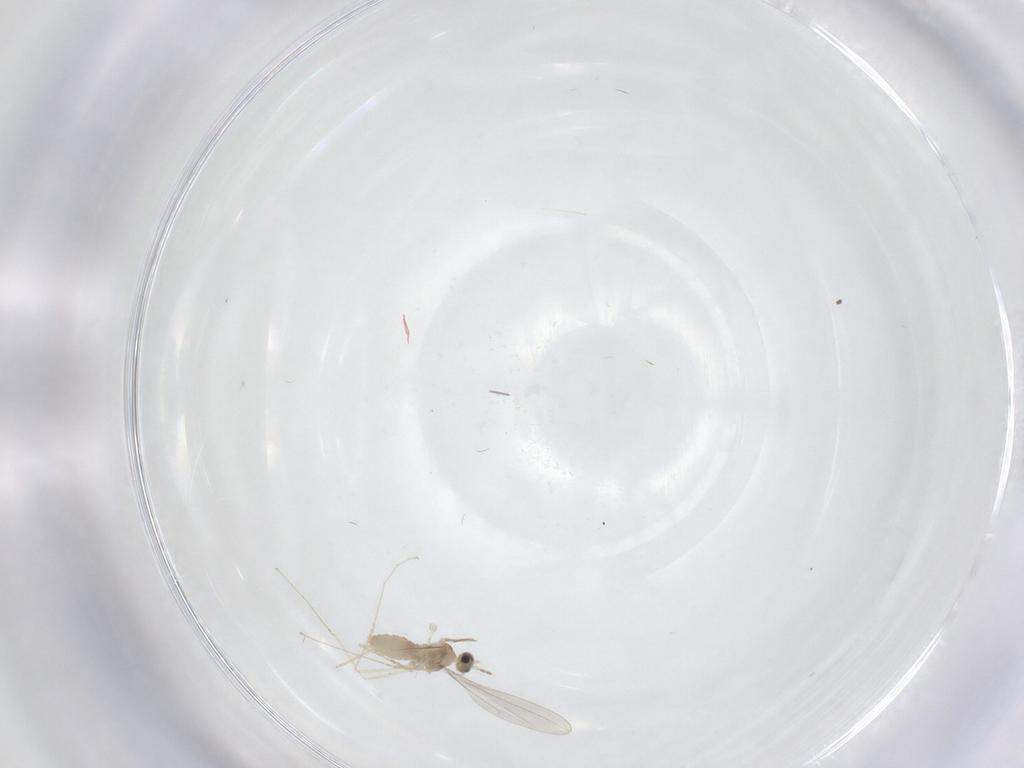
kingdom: Animalia
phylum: Arthropoda
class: Insecta
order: Diptera
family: Cecidomyiidae
